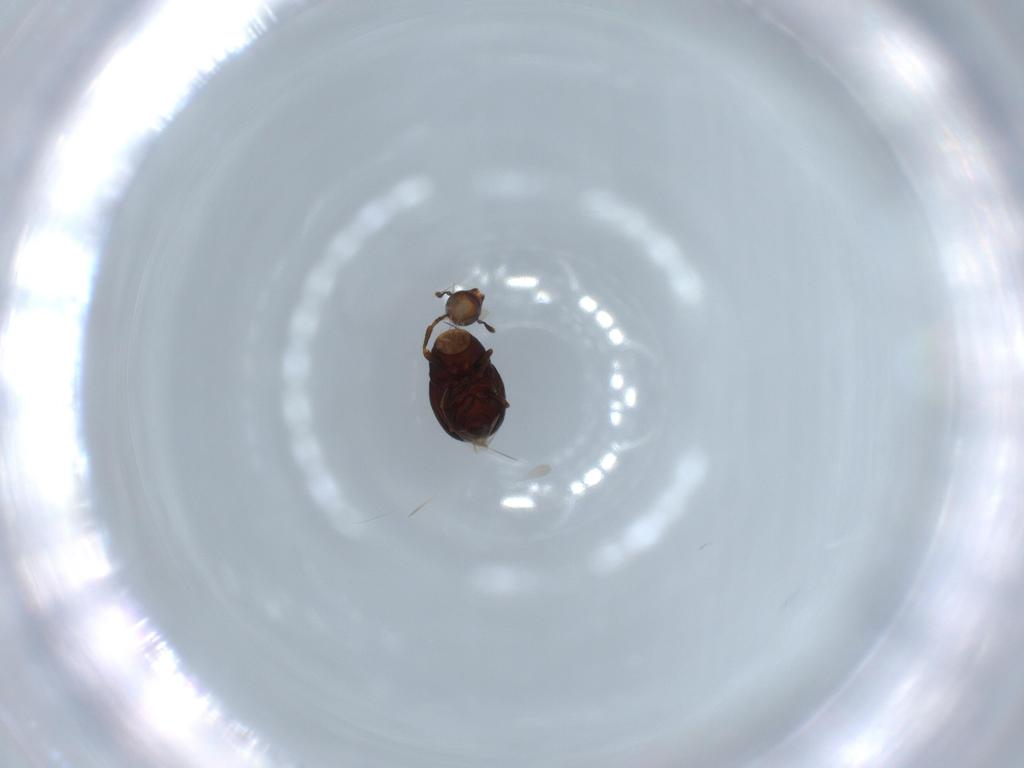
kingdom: Animalia
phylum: Arthropoda
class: Insecta
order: Coleoptera
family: Anthribidae
